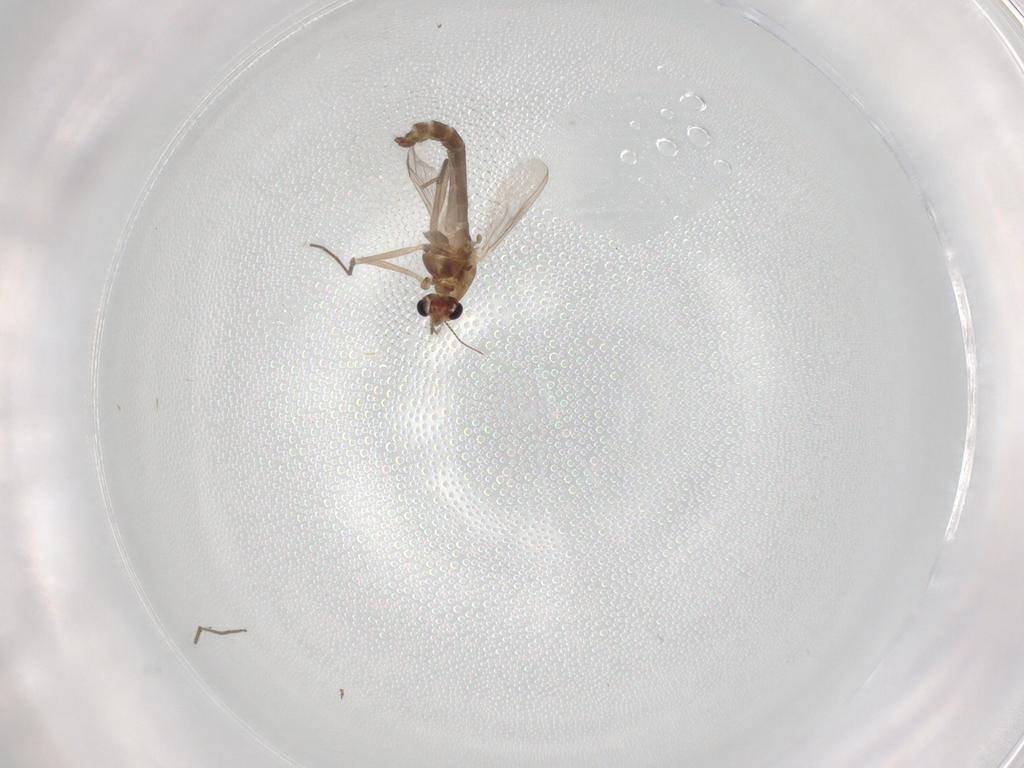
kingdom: Animalia
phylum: Arthropoda
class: Insecta
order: Diptera
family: Chironomidae
